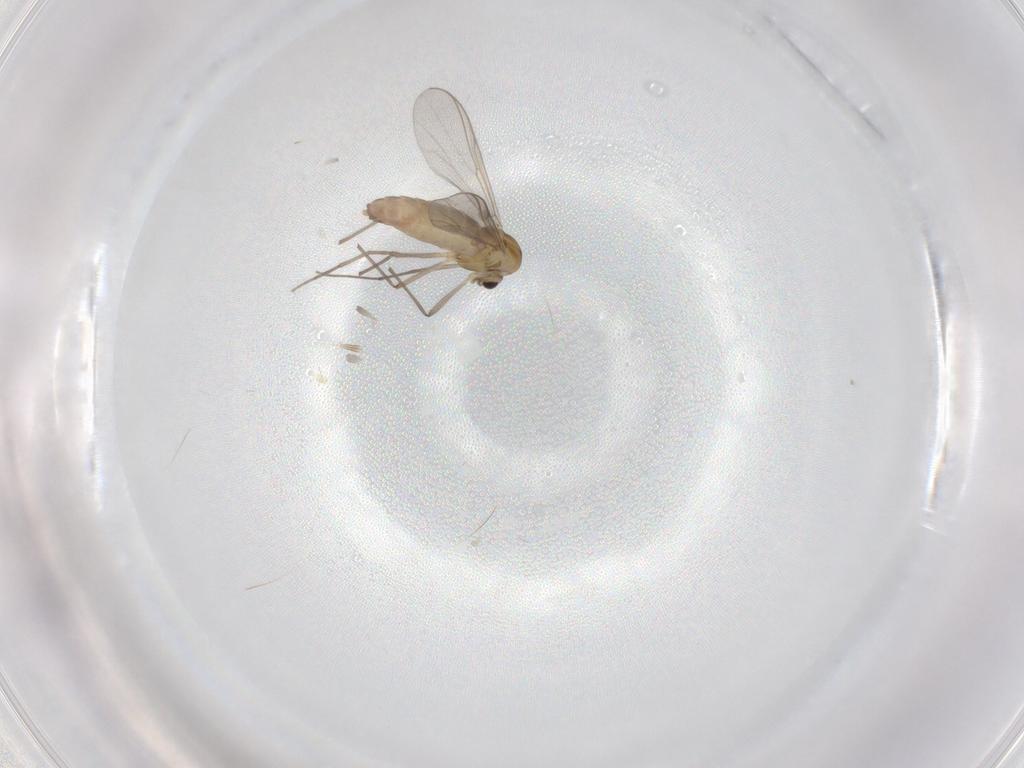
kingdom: Animalia
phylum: Arthropoda
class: Insecta
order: Diptera
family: Chironomidae
